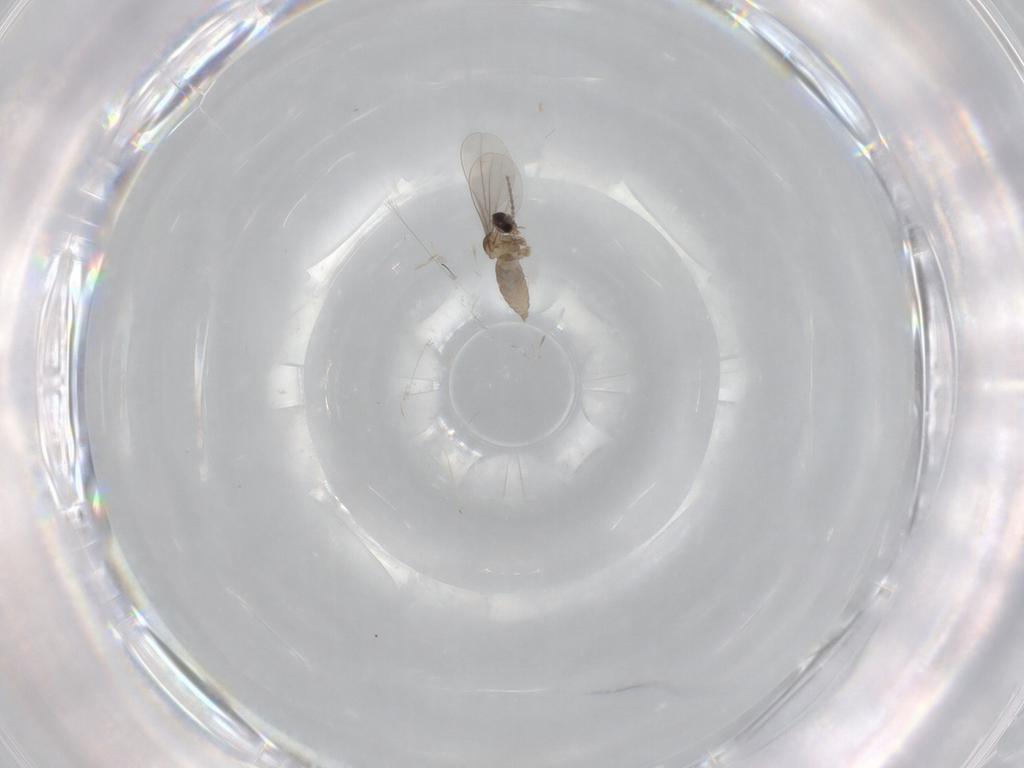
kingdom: Animalia
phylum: Arthropoda
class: Insecta
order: Diptera
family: Cecidomyiidae
